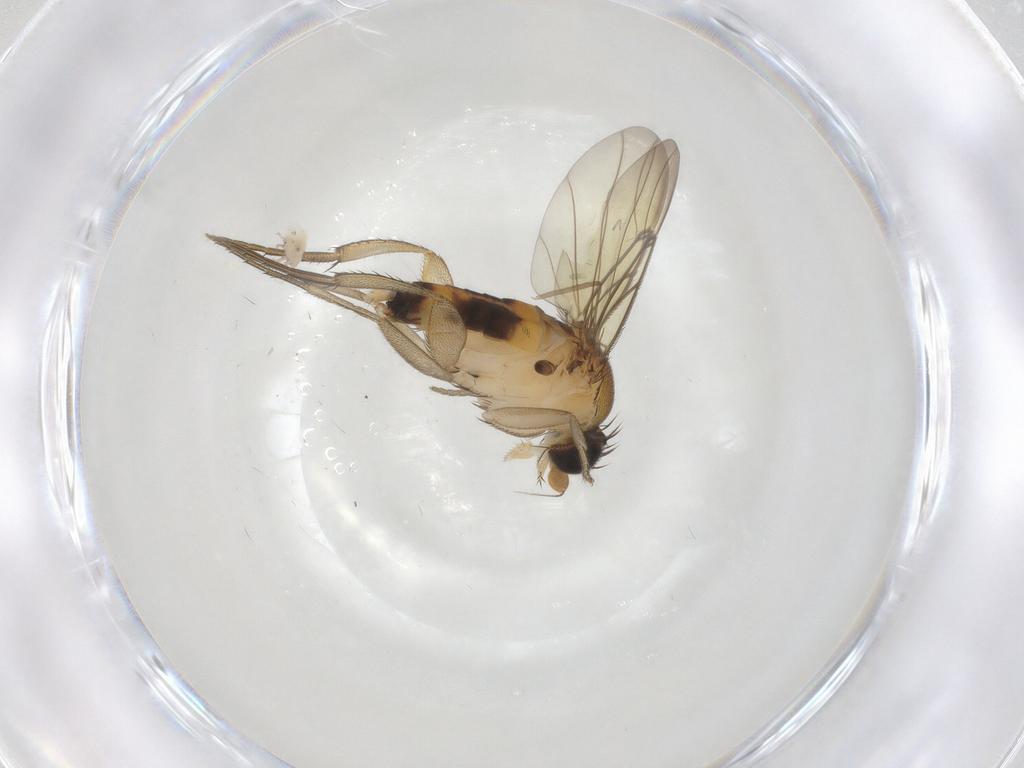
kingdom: Animalia
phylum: Arthropoda
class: Insecta
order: Diptera
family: Phoridae
